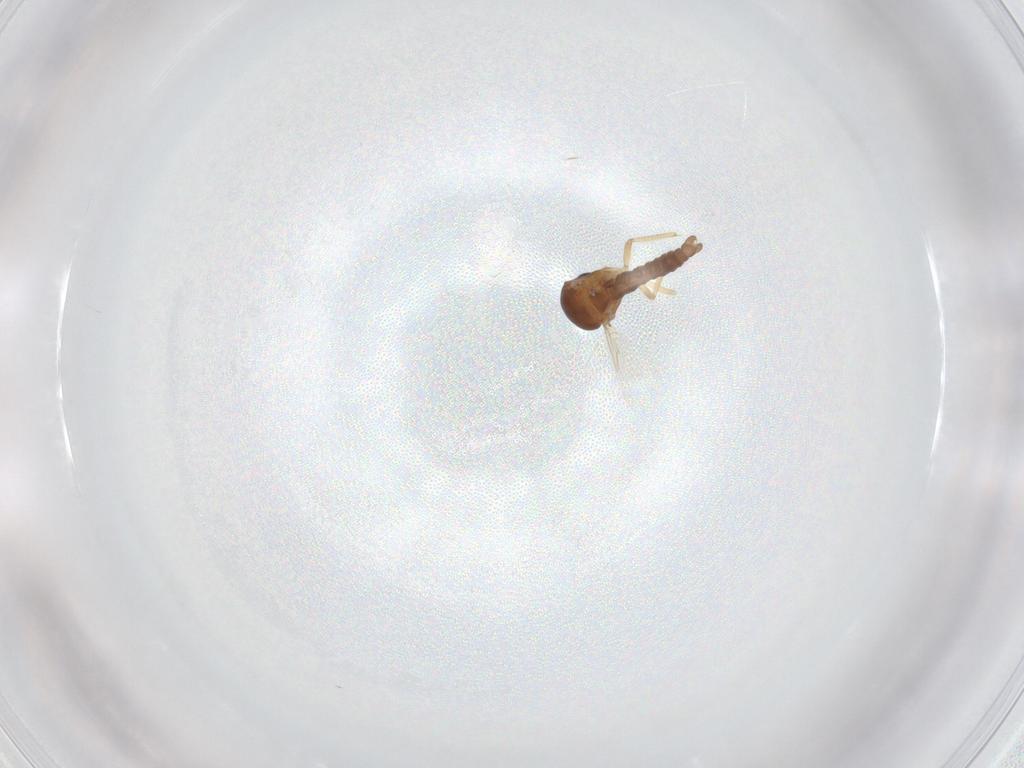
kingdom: Animalia
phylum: Arthropoda
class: Insecta
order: Diptera
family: Ceratopogonidae
